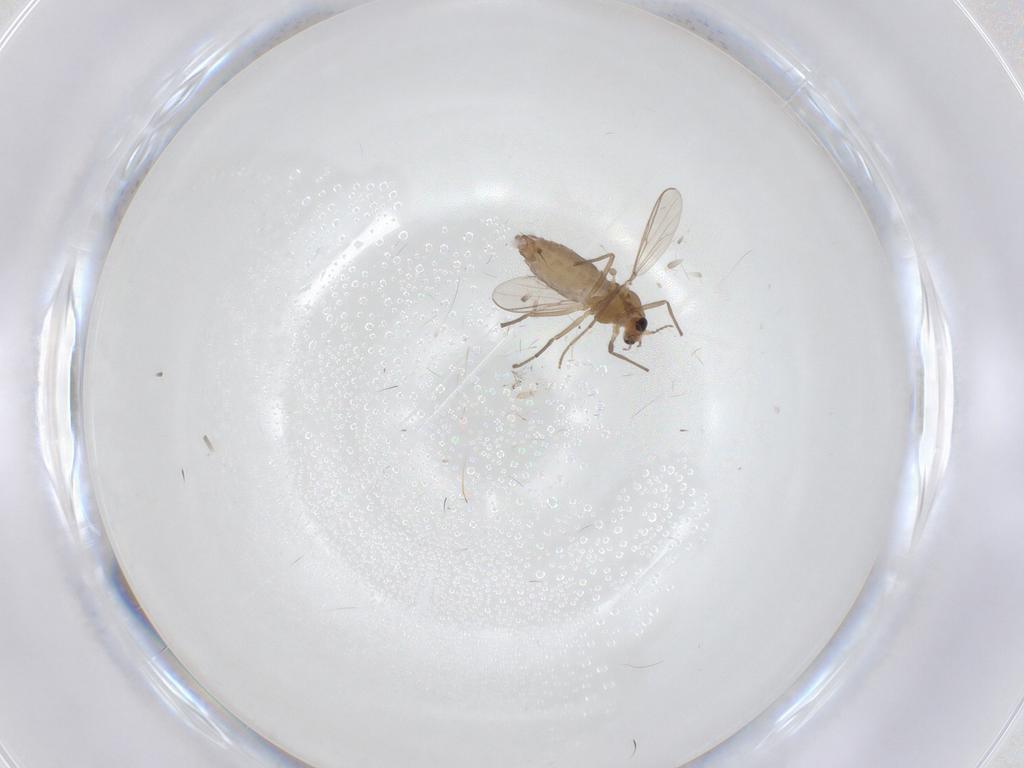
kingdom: Animalia
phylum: Arthropoda
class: Insecta
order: Diptera
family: Chironomidae
